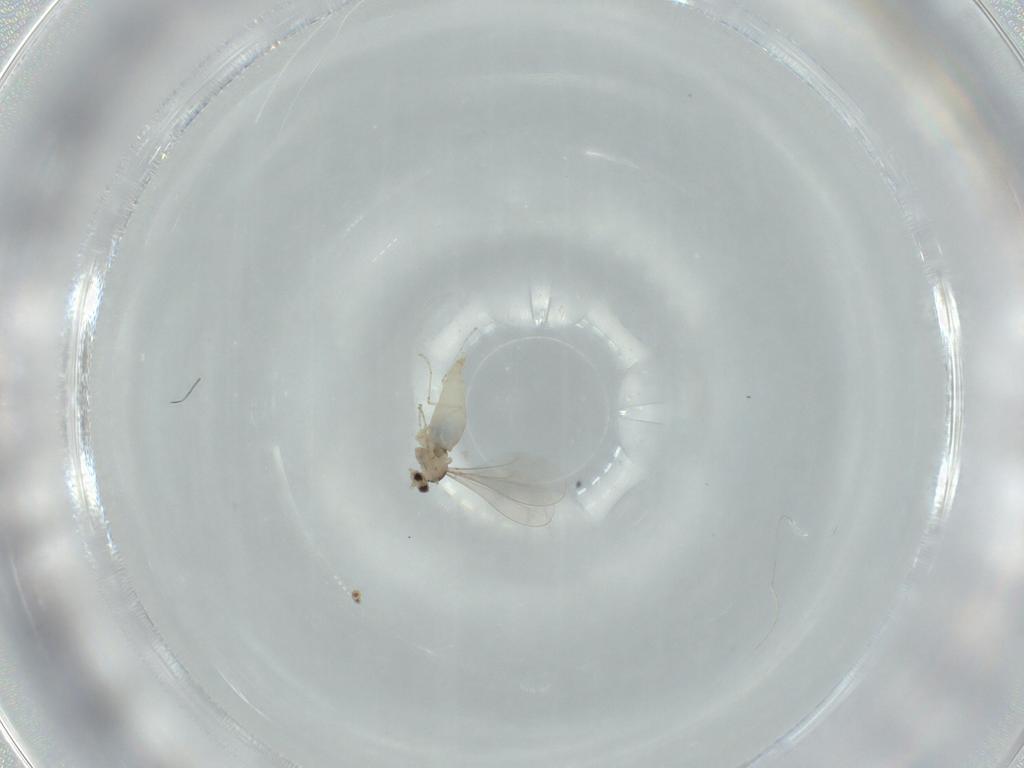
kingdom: Animalia
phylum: Arthropoda
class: Insecta
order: Diptera
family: Cecidomyiidae
